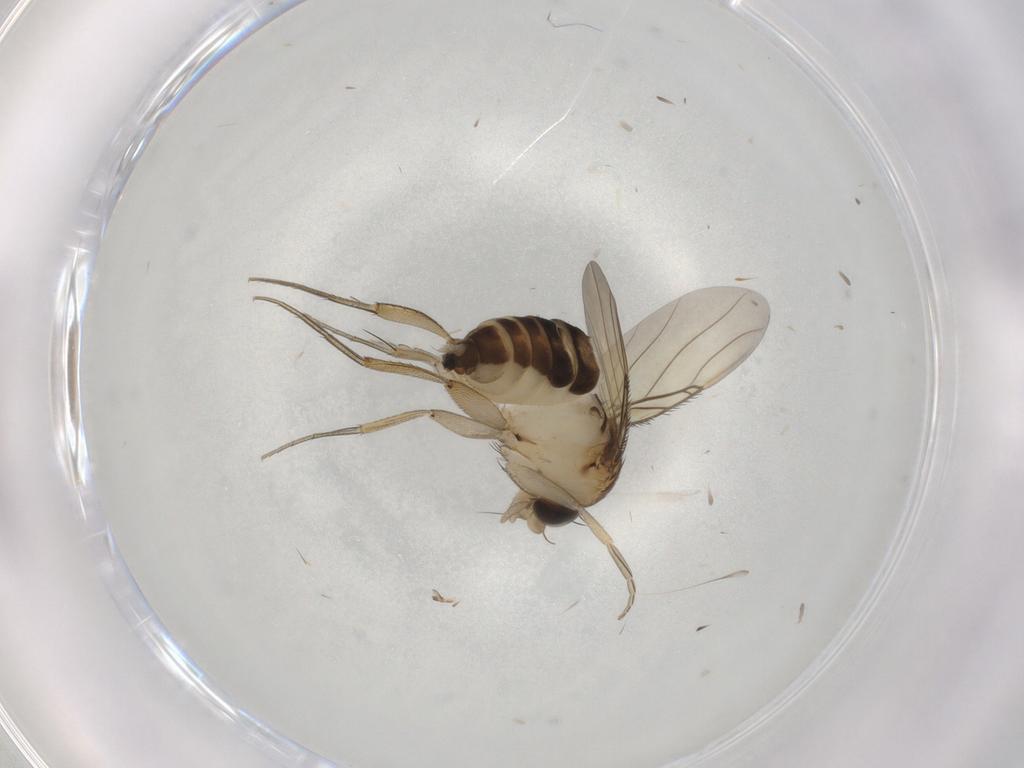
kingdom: Animalia
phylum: Arthropoda
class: Insecta
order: Diptera
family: Phoridae
